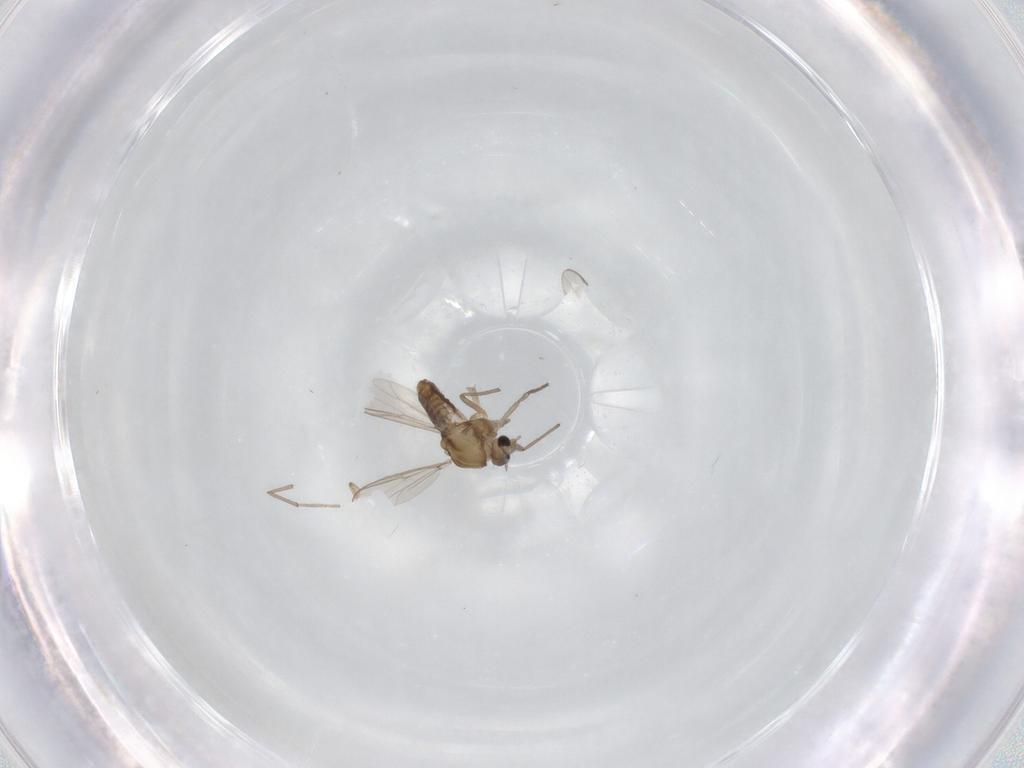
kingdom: Animalia
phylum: Arthropoda
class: Insecta
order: Diptera
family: Chironomidae
